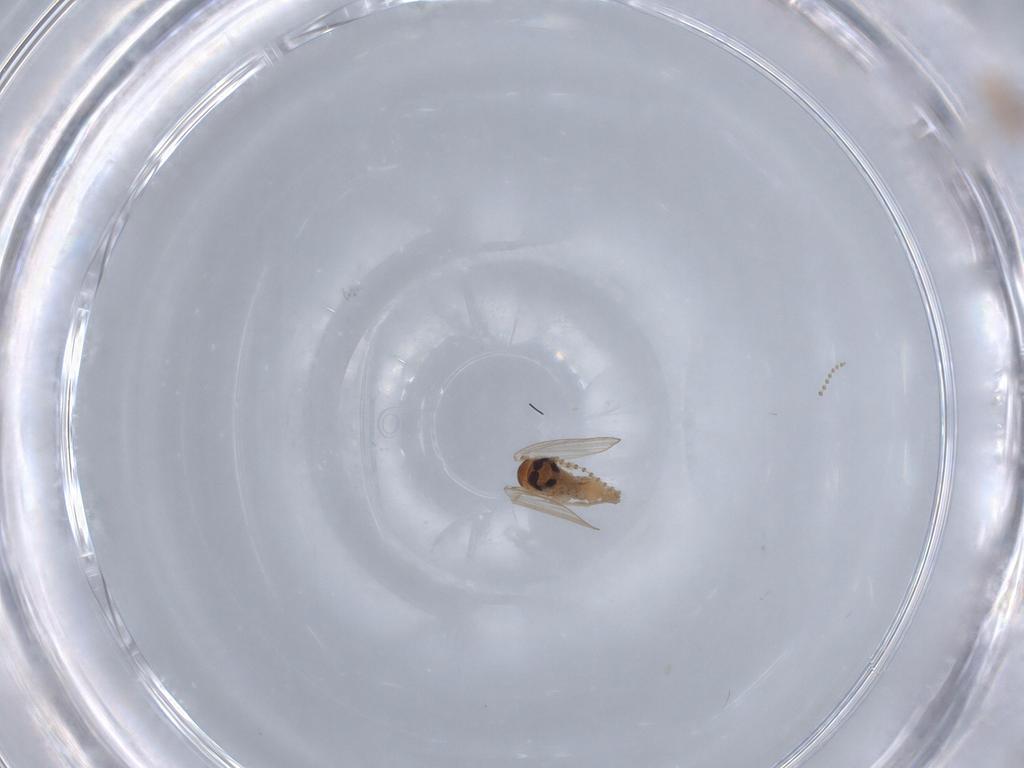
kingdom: Animalia
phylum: Arthropoda
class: Insecta
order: Diptera
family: Psychodidae
